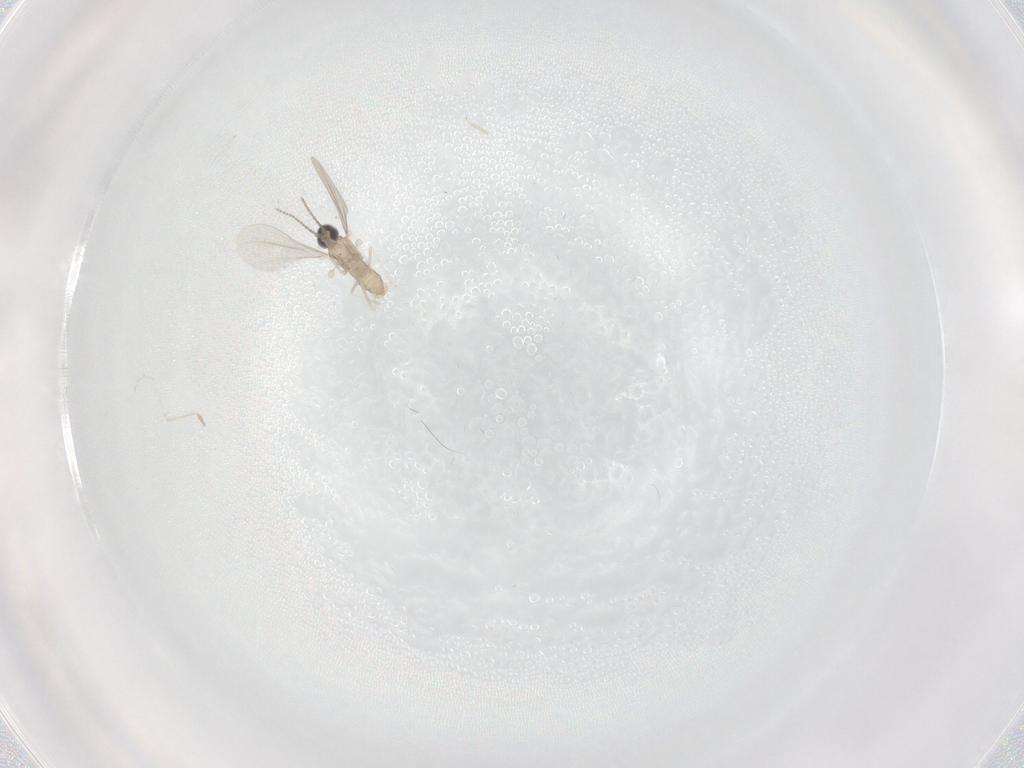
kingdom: Animalia
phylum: Arthropoda
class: Insecta
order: Diptera
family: Cecidomyiidae
